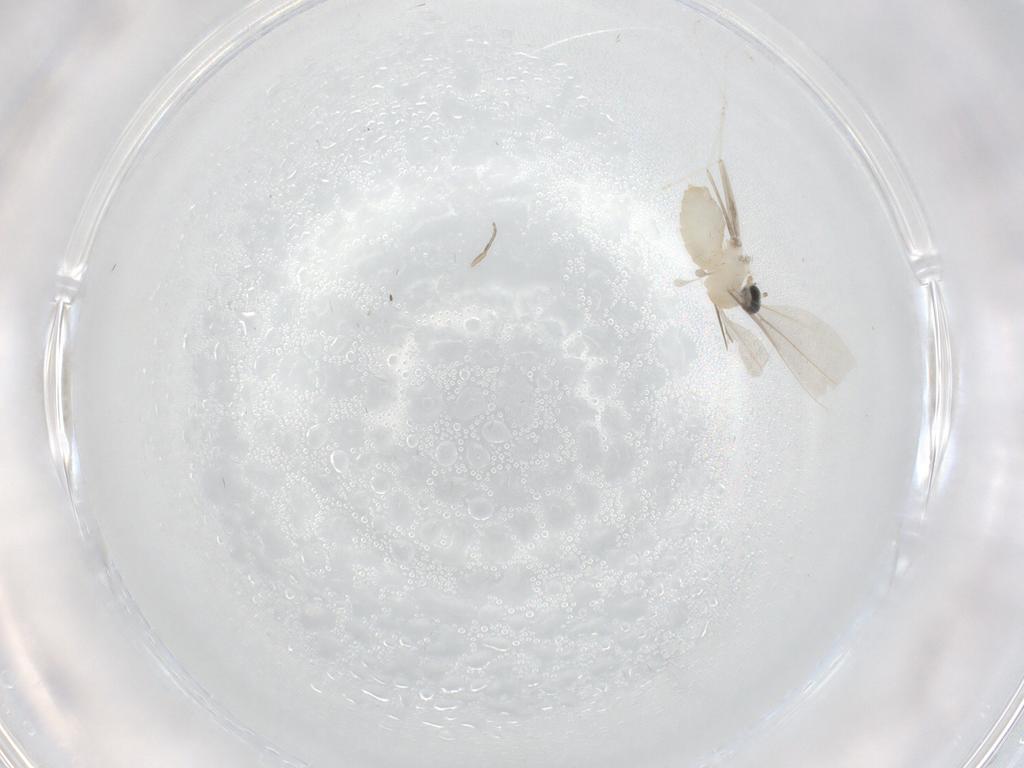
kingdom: Animalia
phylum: Arthropoda
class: Insecta
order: Diptera
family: Phoridae
